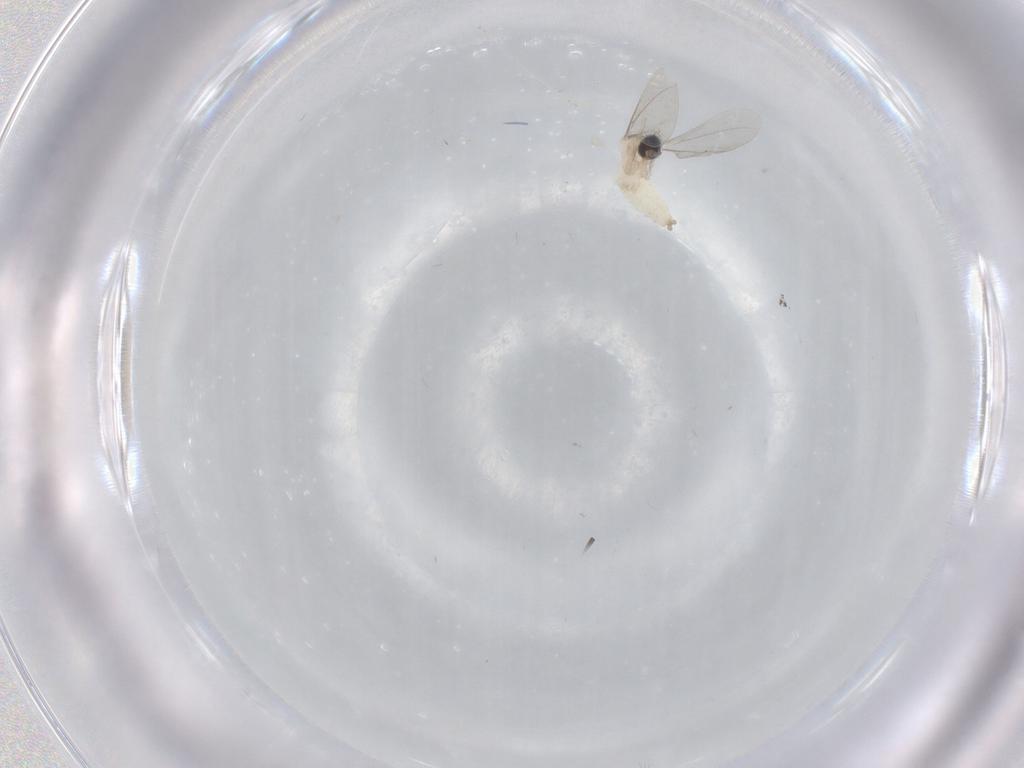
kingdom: Animalia
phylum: Arthropoda
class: Insecta
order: Diptera
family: Cecidomyiidae
